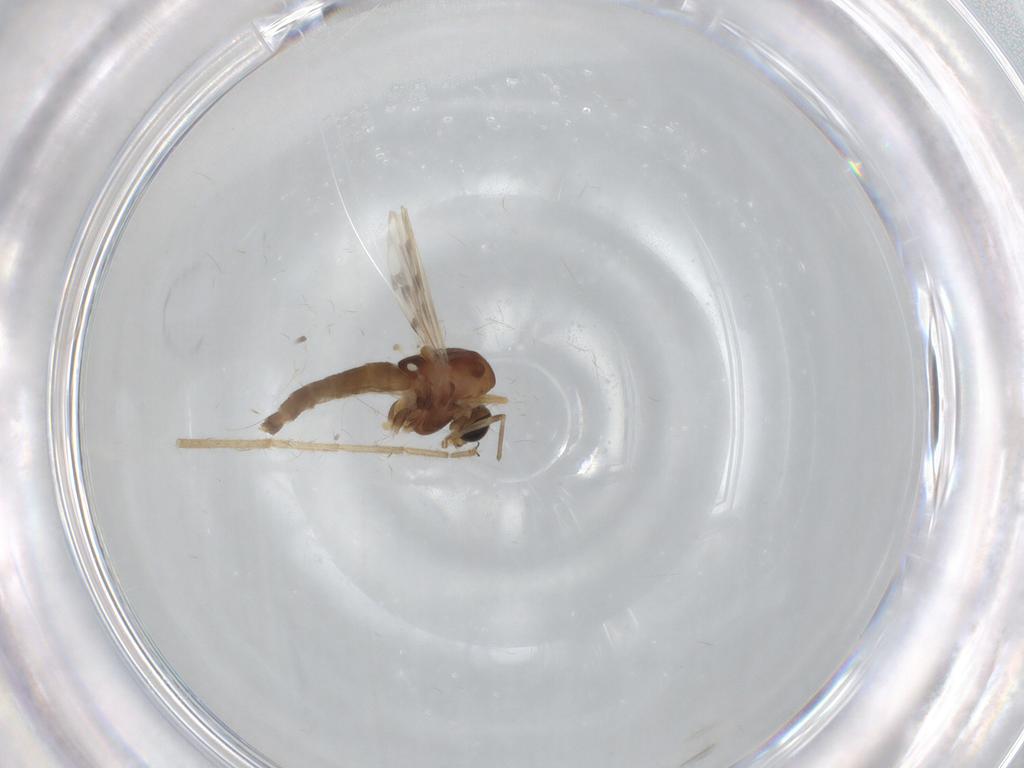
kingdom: Animalia
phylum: Arthropoda
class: Insecta
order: Diptera
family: Chironomidae
